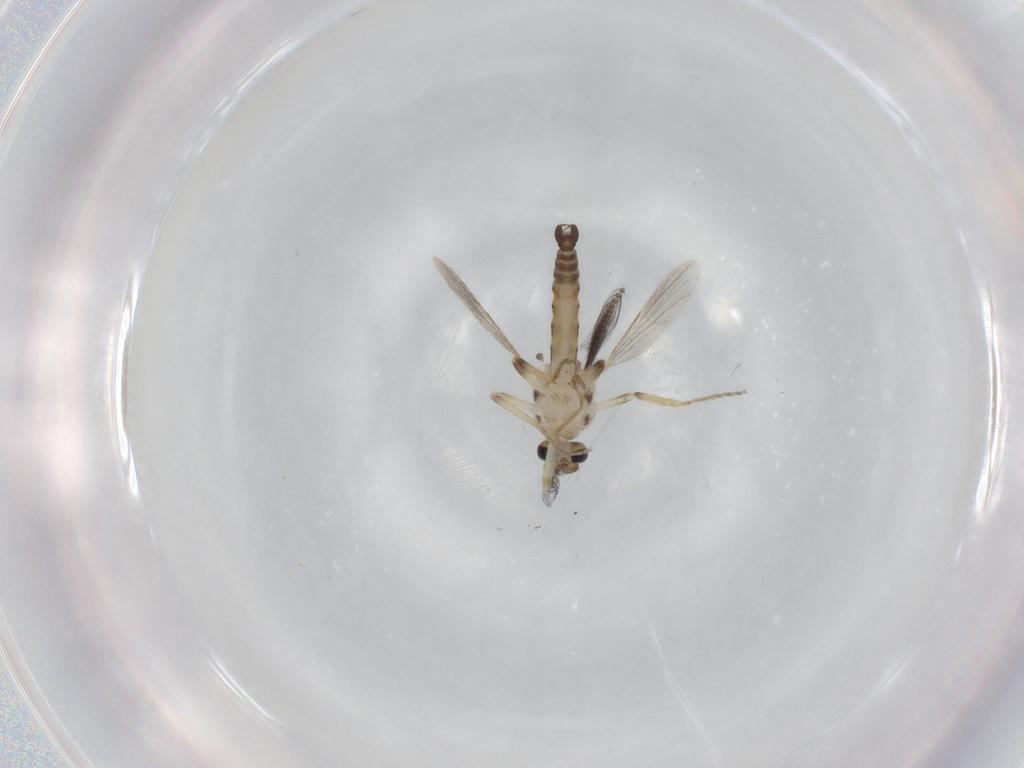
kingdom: Animalia
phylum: Arthropoda
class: Insecta
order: Diptera
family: Ceratopogonidae
